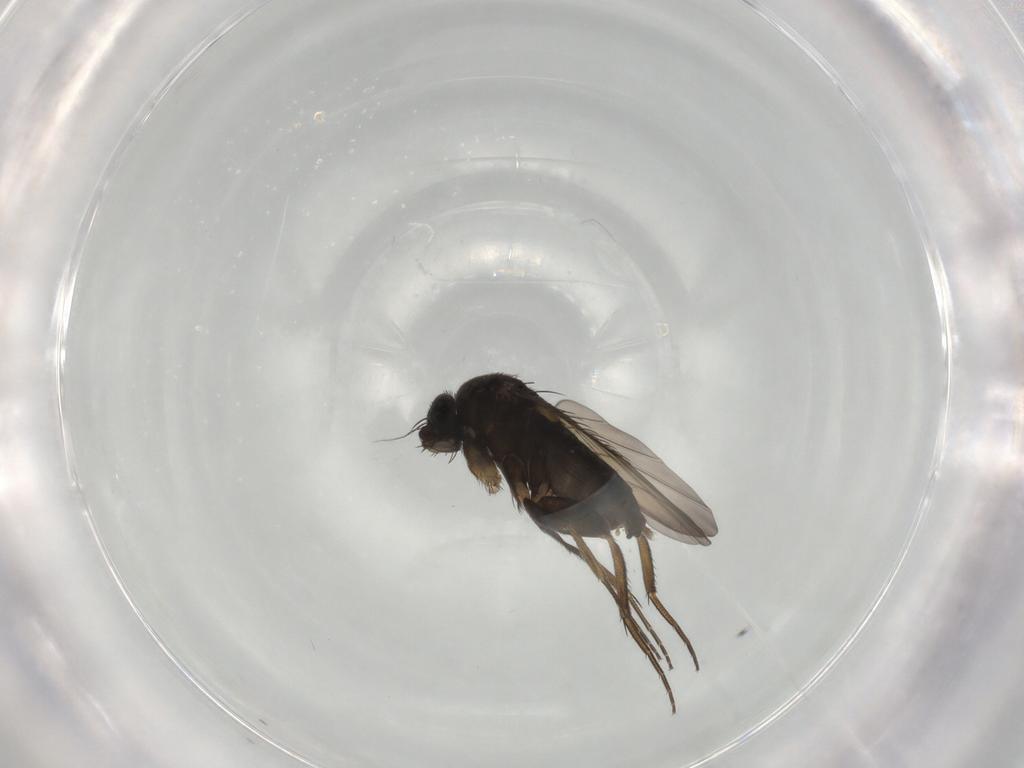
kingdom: Animalia
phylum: Arthropoda
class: Insecta
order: Diptera
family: Phoridae
